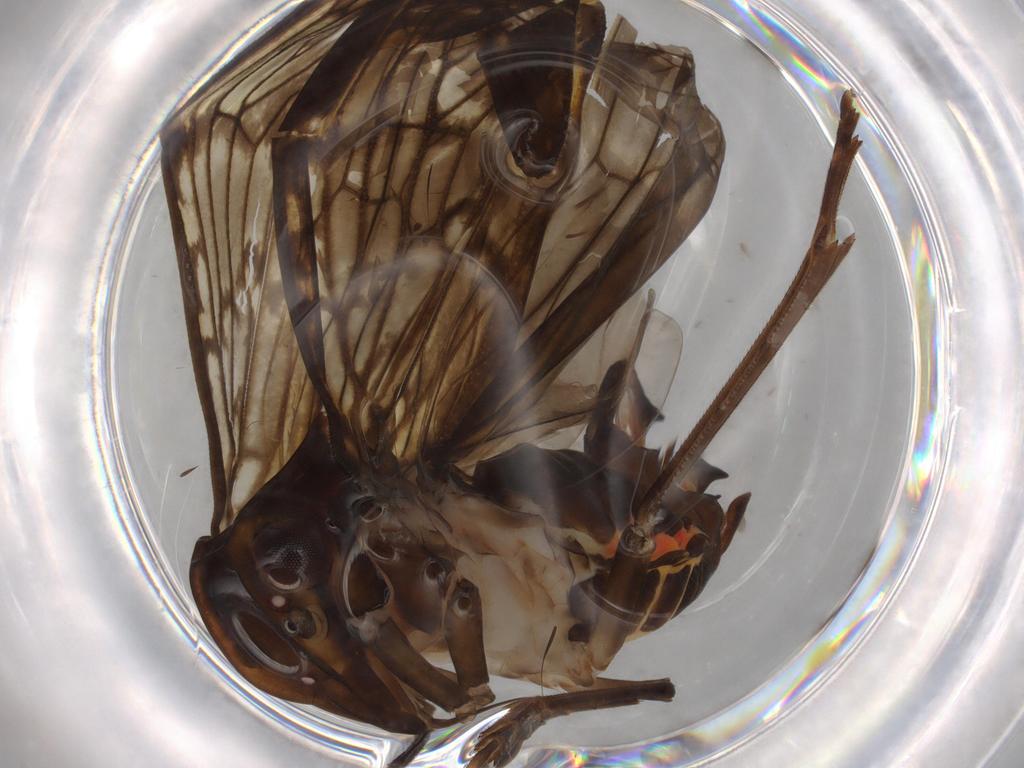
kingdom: Animalia
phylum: Arthropoda
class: Insecta
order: Hemiptera
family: Cixiidae
